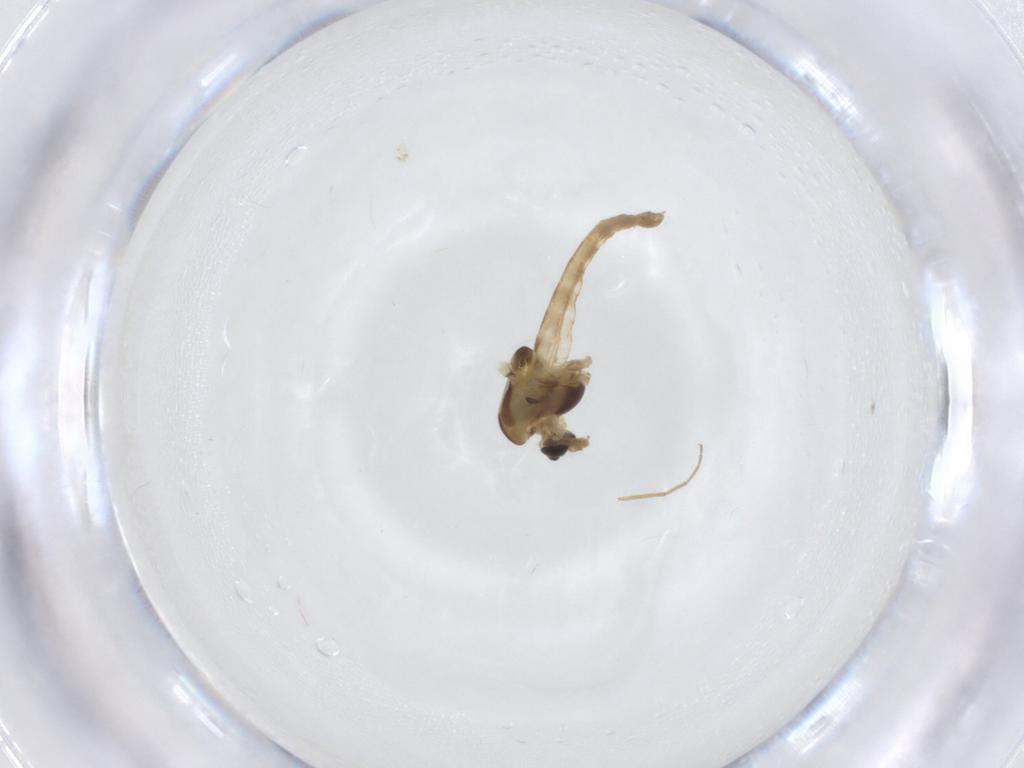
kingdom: Animalia
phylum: Arthropoda
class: Insecta
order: Diptera
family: Chironomidae
